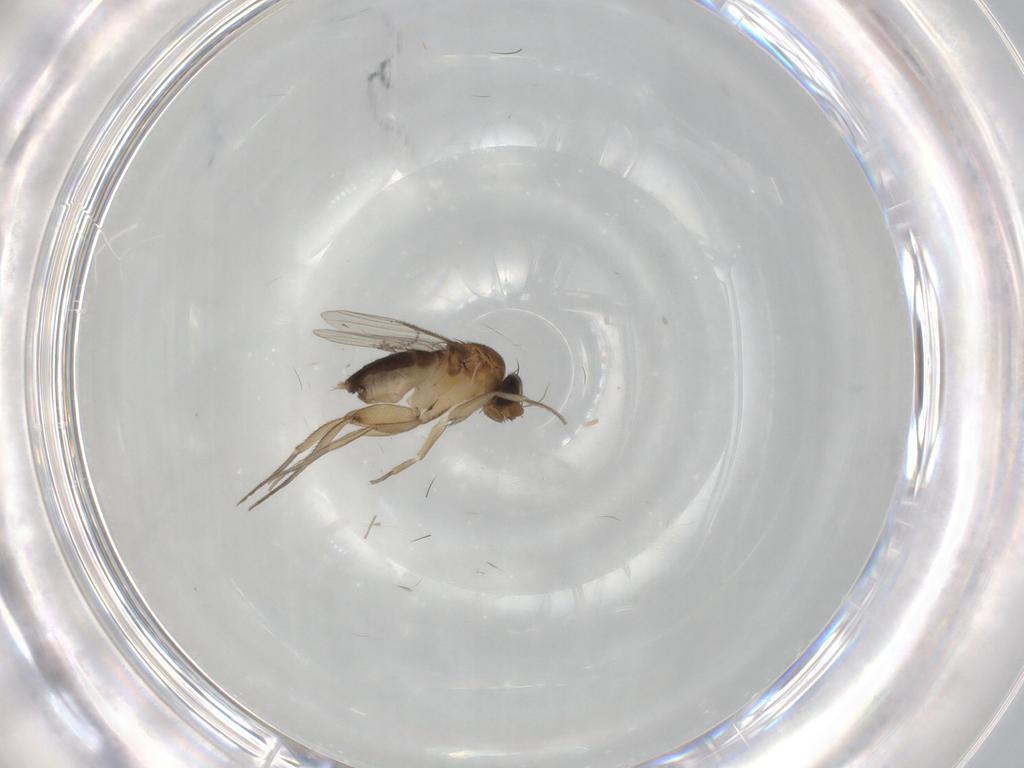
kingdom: Animalia
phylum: Arthropoda
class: Insecta
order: Diptera
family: Phoridae
